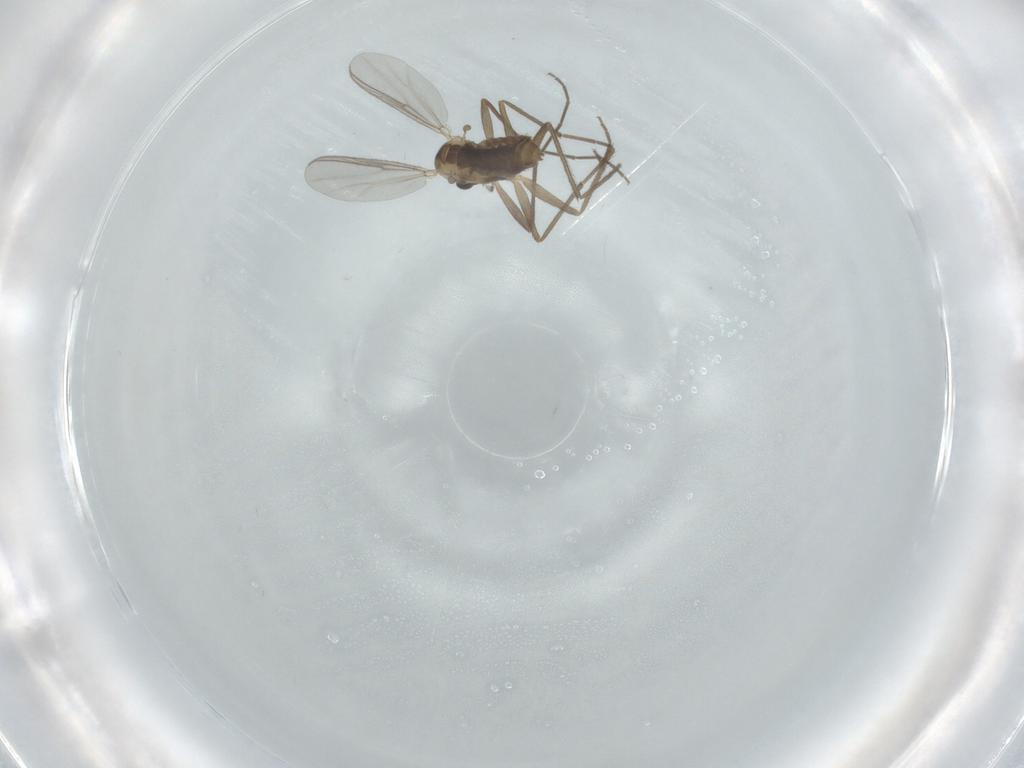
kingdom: Animalia
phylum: Arthropoda
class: Insecta
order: Diptera
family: Chironomidae
